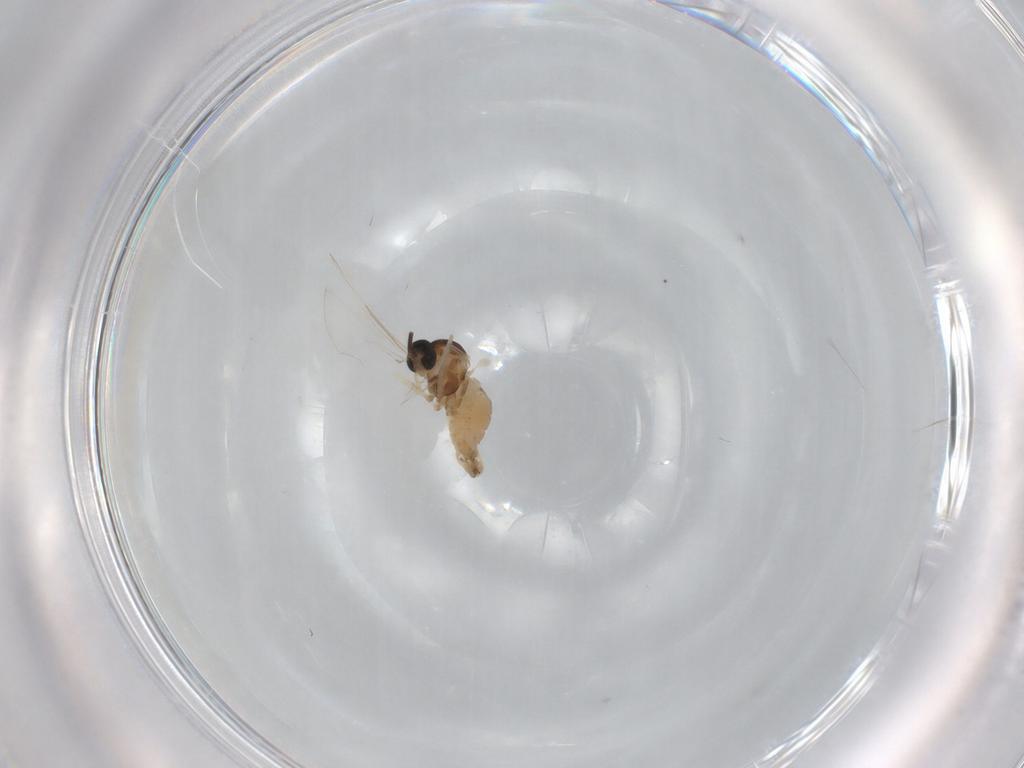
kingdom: Animalia
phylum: Arthropoda
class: Insecta
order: Diptera
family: Cecidomyiidae
